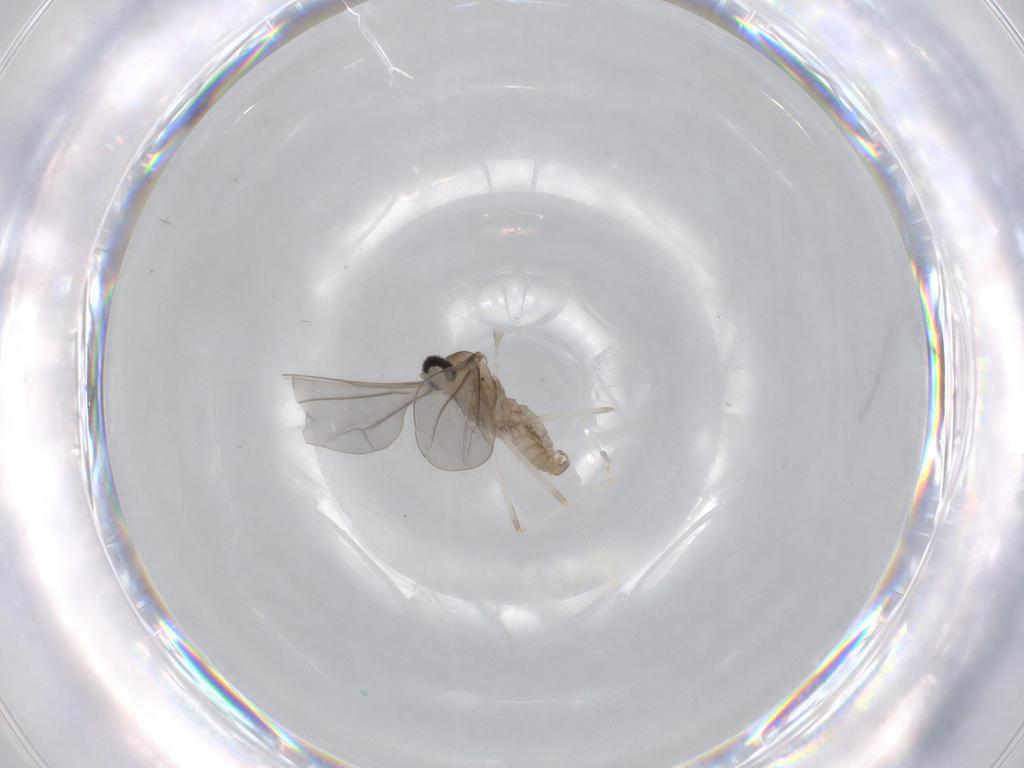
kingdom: Animalia
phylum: Arthropoda
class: Insecta
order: Diptera
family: Cecidomyiidae
